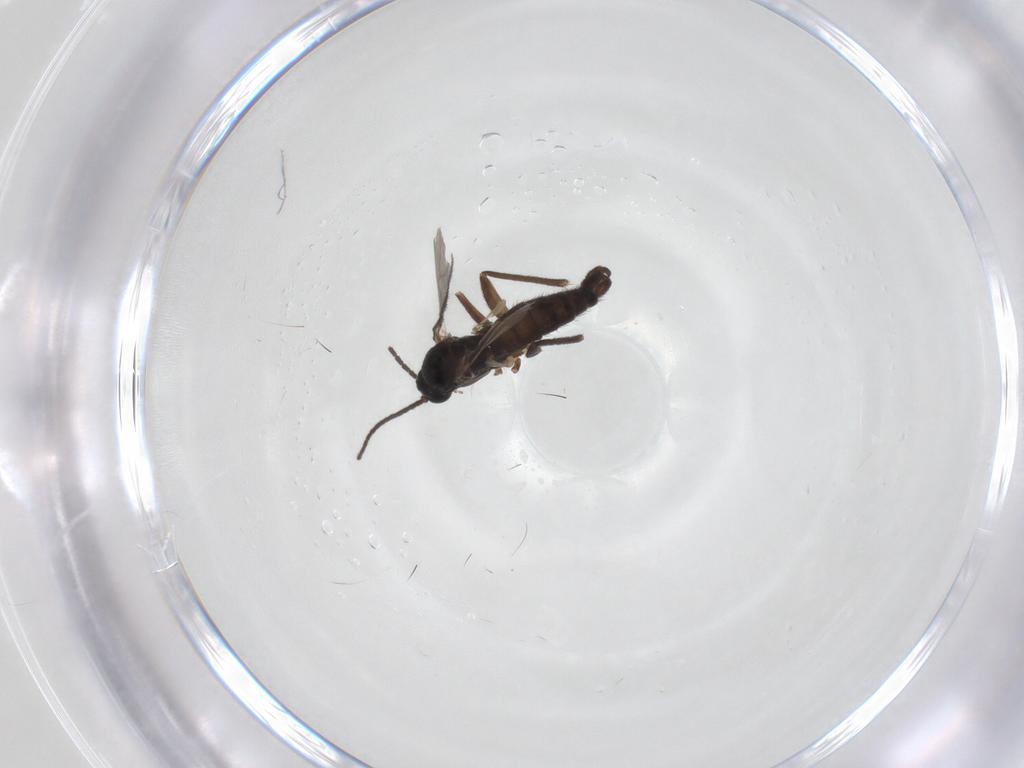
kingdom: Animalia
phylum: Arthropoda
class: Insecta
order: Diptera
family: Sciaridae
